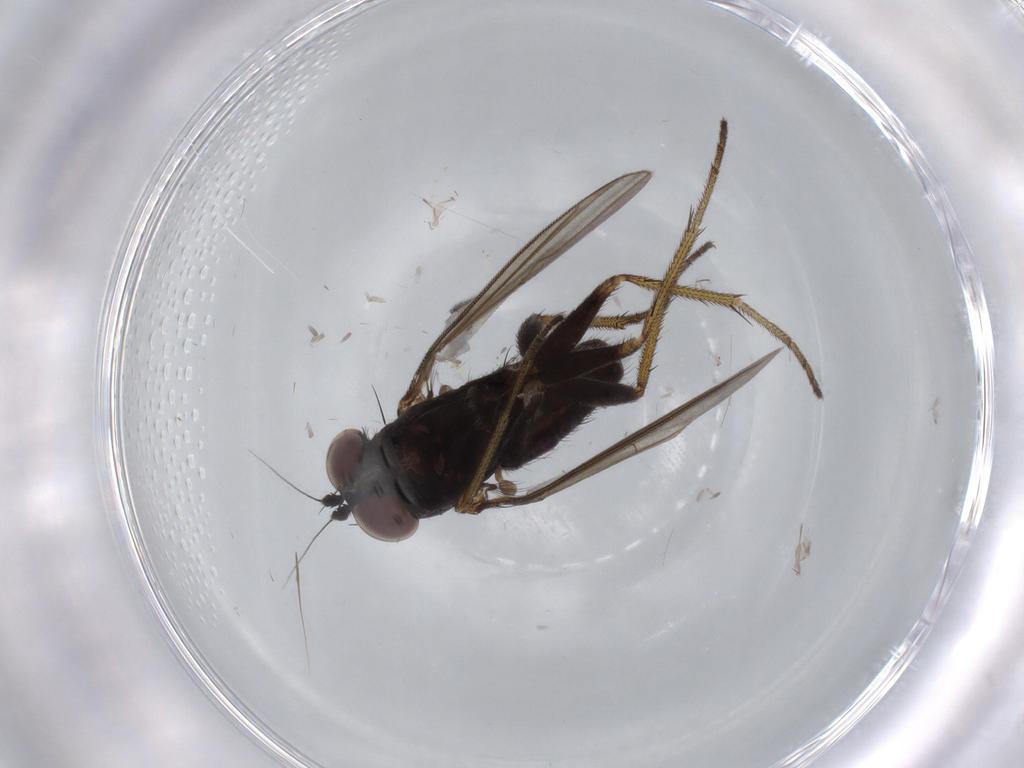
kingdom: Animalia
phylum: Arthropoda
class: Insecta
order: Diptera
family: Dolichopodidae
